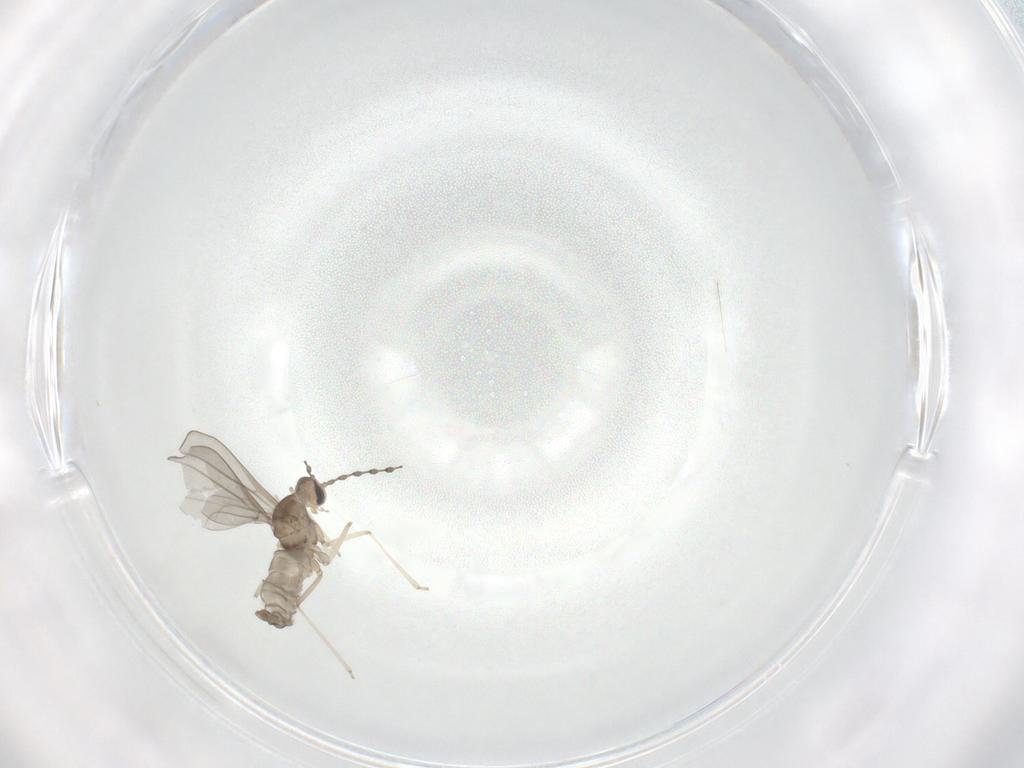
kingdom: Animalia
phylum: Arthropoda
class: Insecta
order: Diptera
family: Cecidomyiidae
